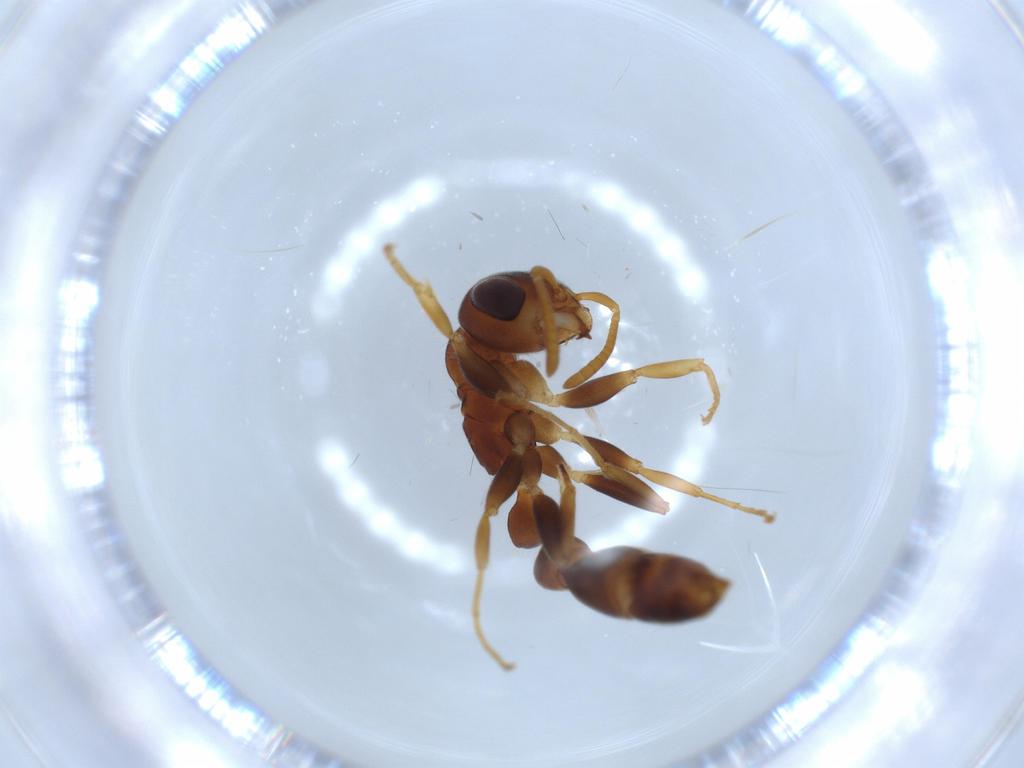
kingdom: Animalia
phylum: Arthropoda
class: Insecta
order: Hymenoptera
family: Formicidae
